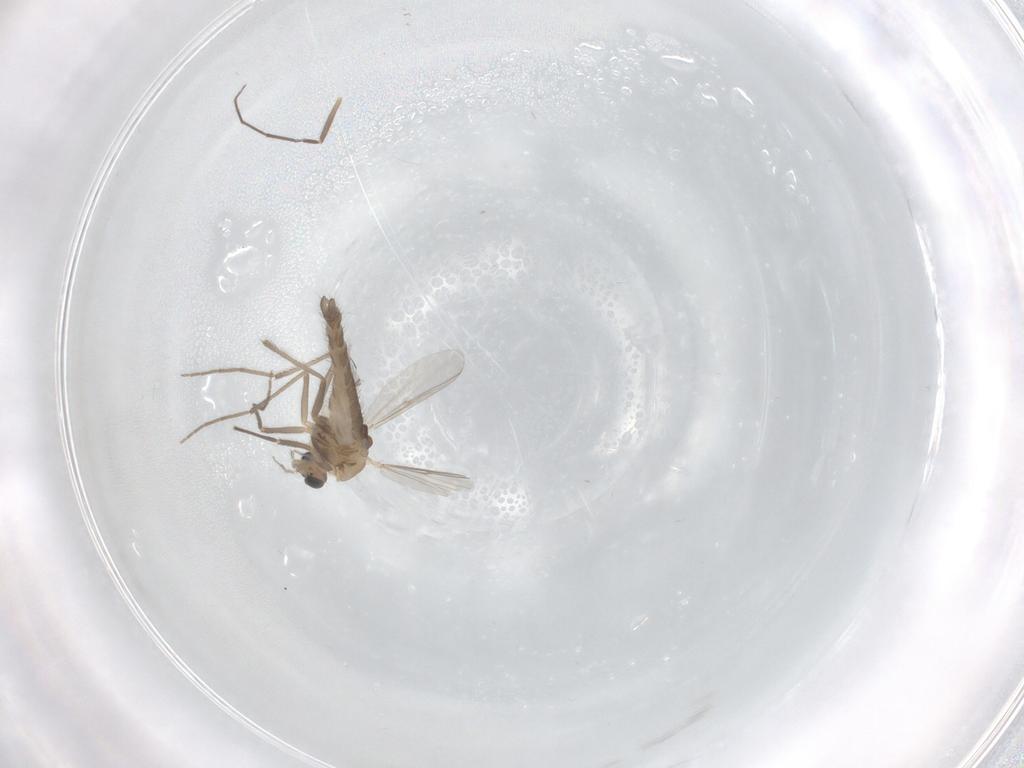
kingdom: Animalia
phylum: Arthropoda
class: Insecta
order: Diptera
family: Chironomidae
